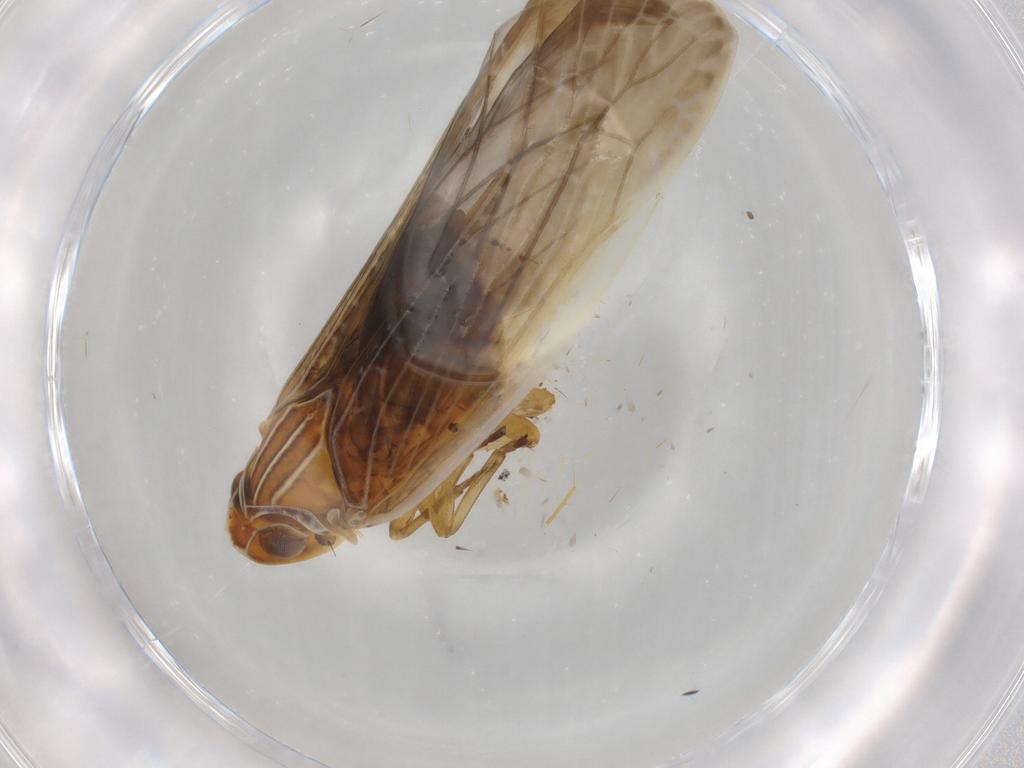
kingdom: Animalia
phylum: Arthropoda
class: Insecta
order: Hemiptera
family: Achilidae
